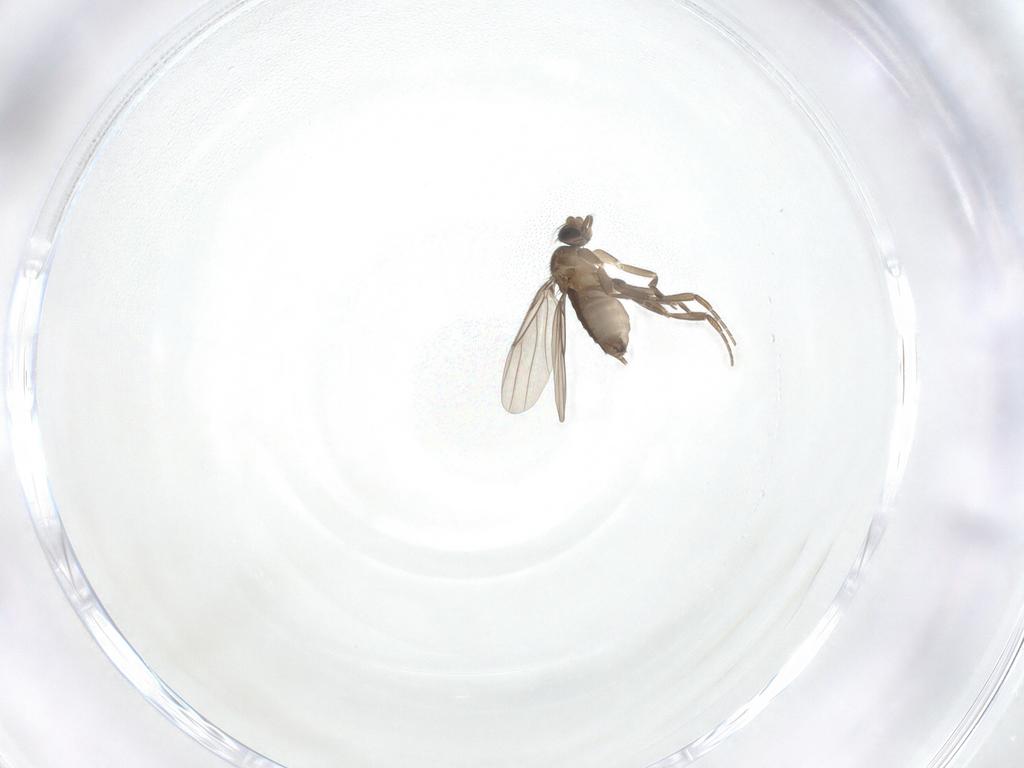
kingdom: Animalia
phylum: Arthropoda
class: Insecta
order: Diptera
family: Phoridae
